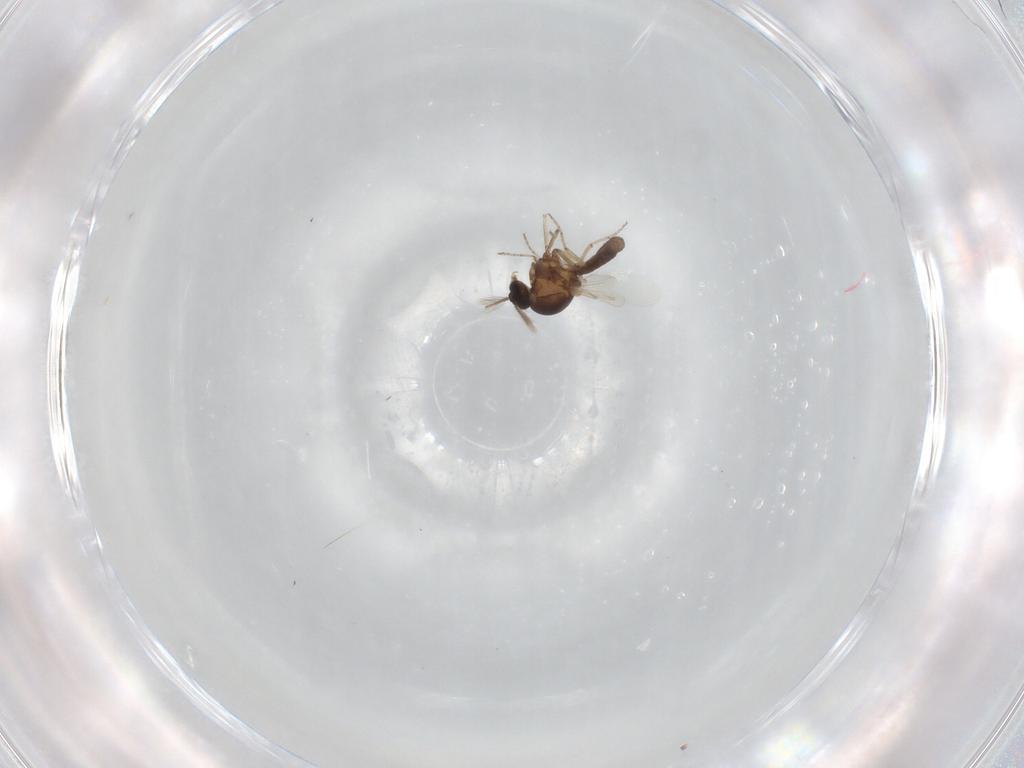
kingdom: Animalia
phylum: Arthropoda
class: Insecta
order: Diptera
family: Ceratopogonidae
